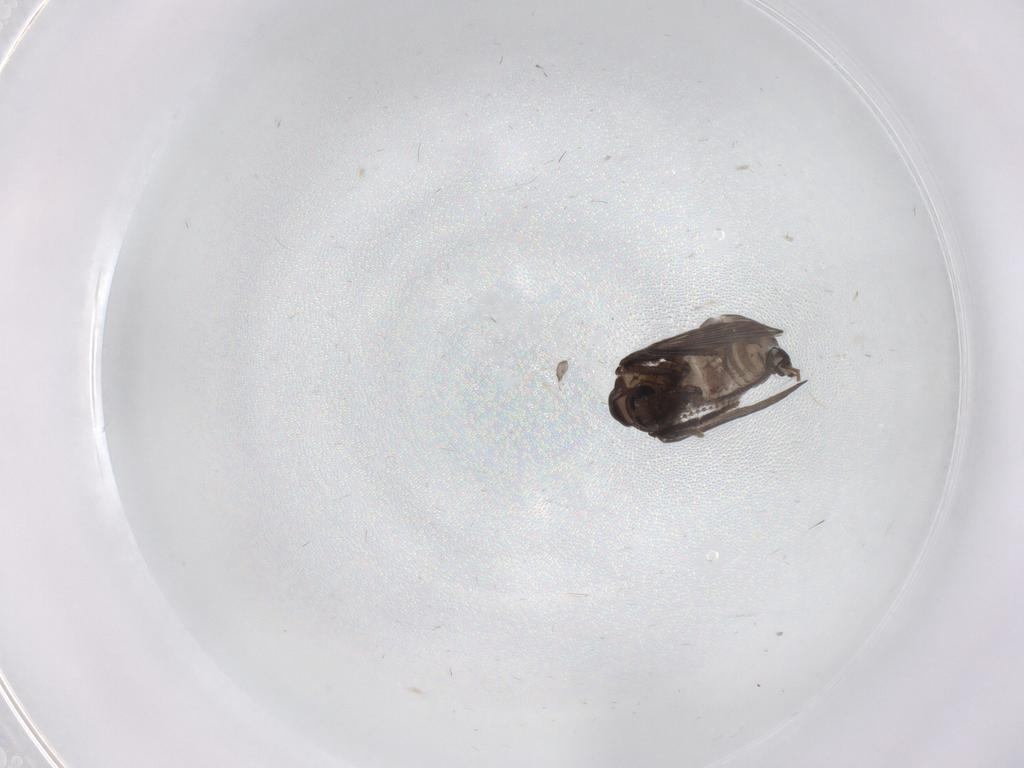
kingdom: Animalia
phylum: Arthropoda
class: Insecta
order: Diptera
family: Psychodidae
